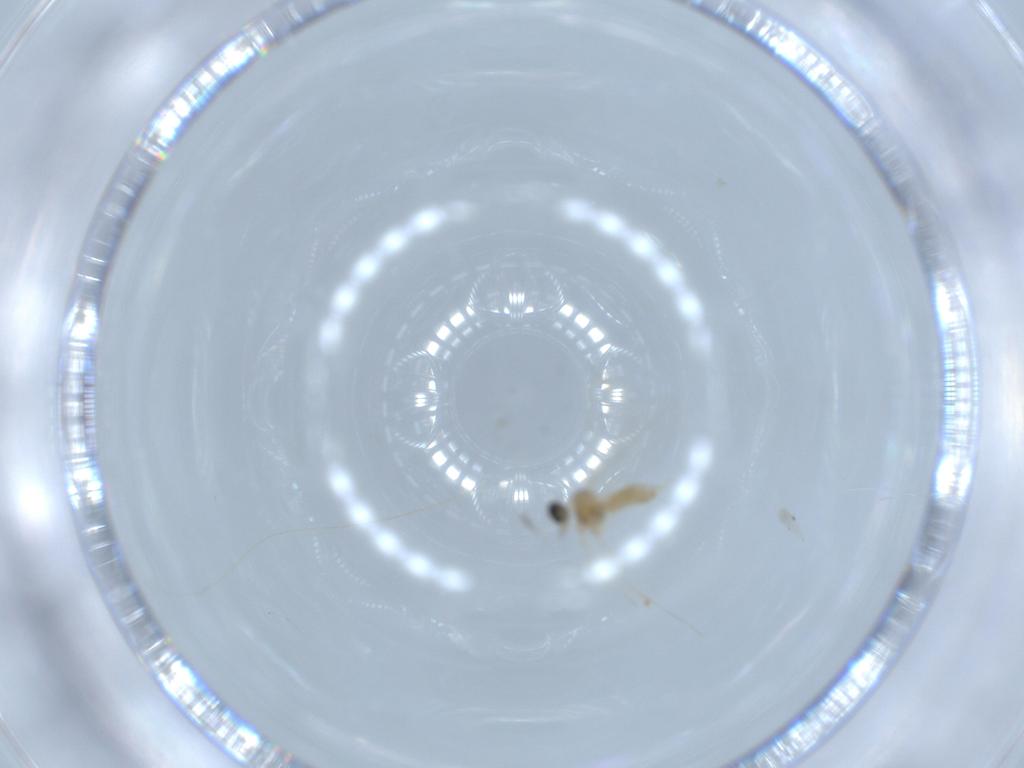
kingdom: Animalia
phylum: Arthropoda
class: Insecta
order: Diptera
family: Cecidomyiidae
